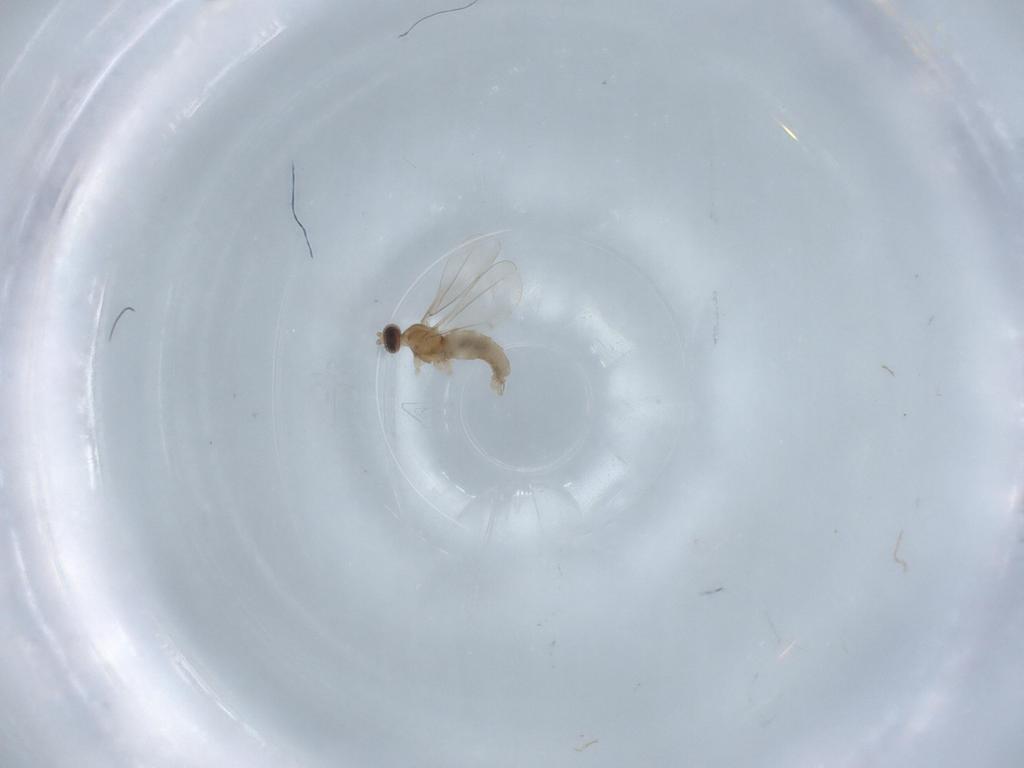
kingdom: Animalia
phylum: Arthropoda
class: Insecta
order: Diptera
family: Cecidomyiidae
